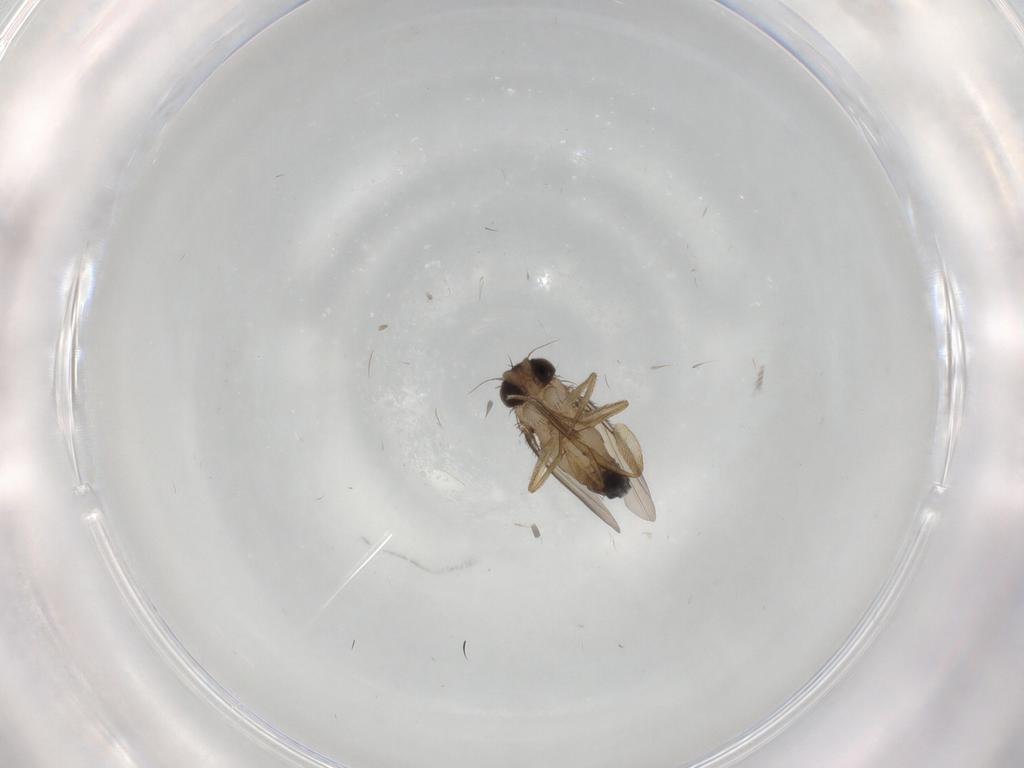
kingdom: Animalia
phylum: Arthropoda
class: Insecta
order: Diptera
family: Phoridae
